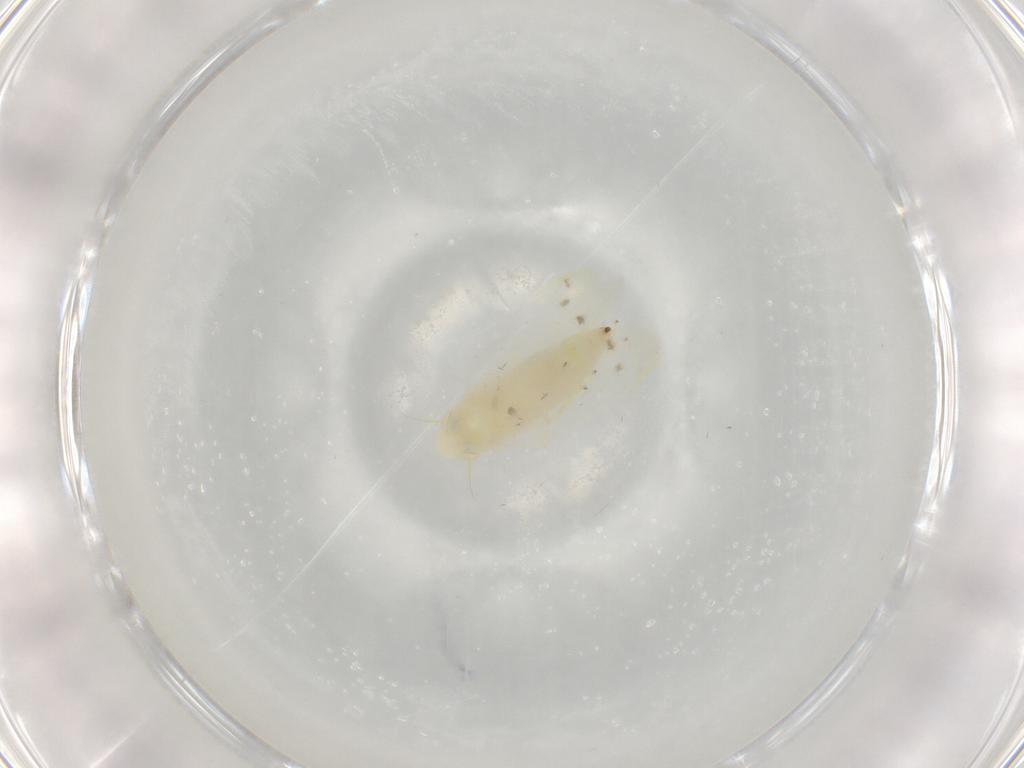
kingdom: Animalia
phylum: Arthropoda
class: Insecta
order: Hemiptera
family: Cicadellidae
